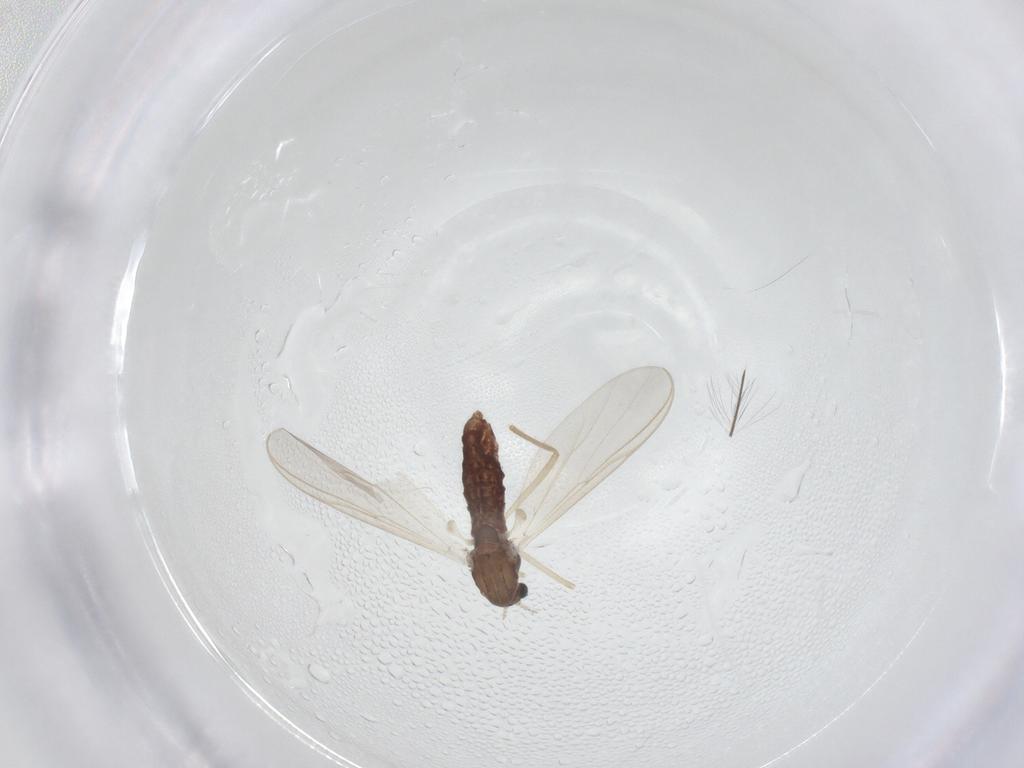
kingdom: Animalia
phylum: Arthropoda
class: Insecta
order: Diptera
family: Chironomidae
